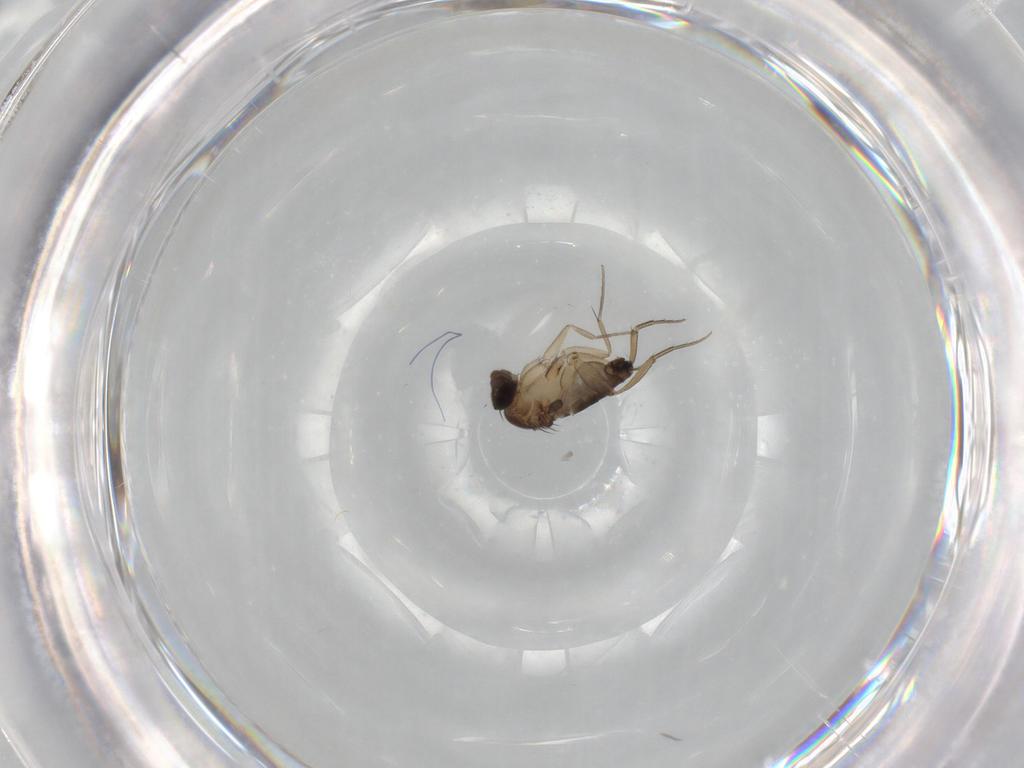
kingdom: Animalia
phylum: Arthropoda
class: Insecta
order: Diptera
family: Phoridae
